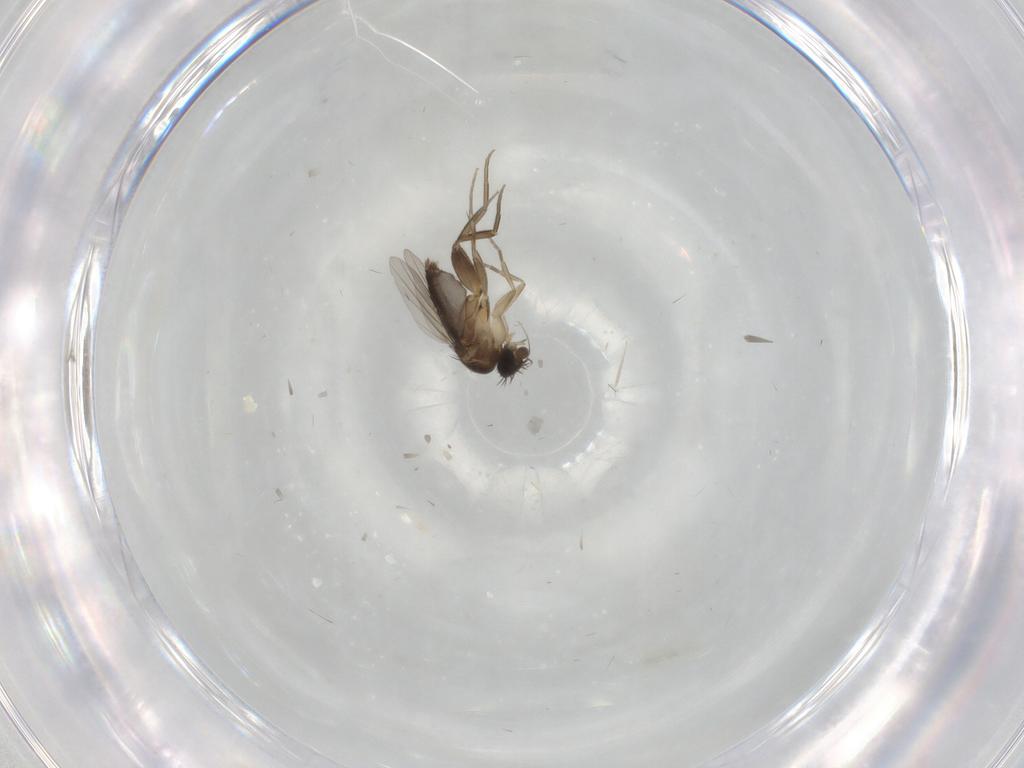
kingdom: Animalia
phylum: Arthropoda
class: Insecta
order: Diptera
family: Phoridae
